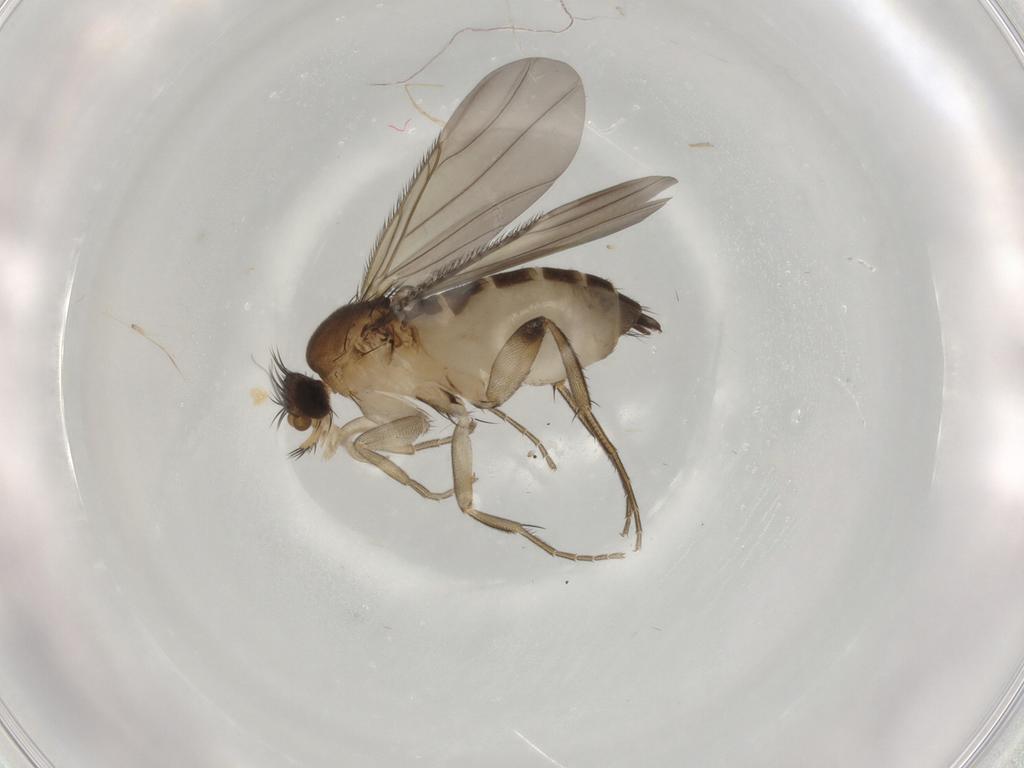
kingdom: Animalia
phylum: Arthropoda
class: Insecta
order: Diptera
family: Phoridae
